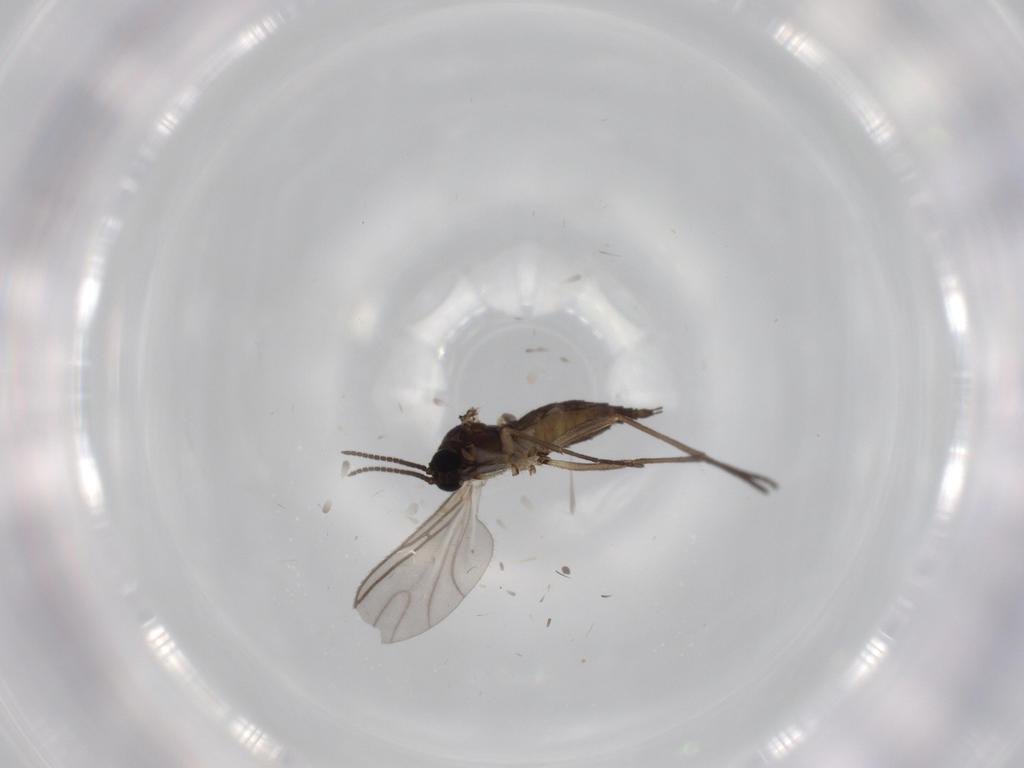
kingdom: Animalia
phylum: Arthropoda
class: Insecta
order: Diptera
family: Sciaridae
